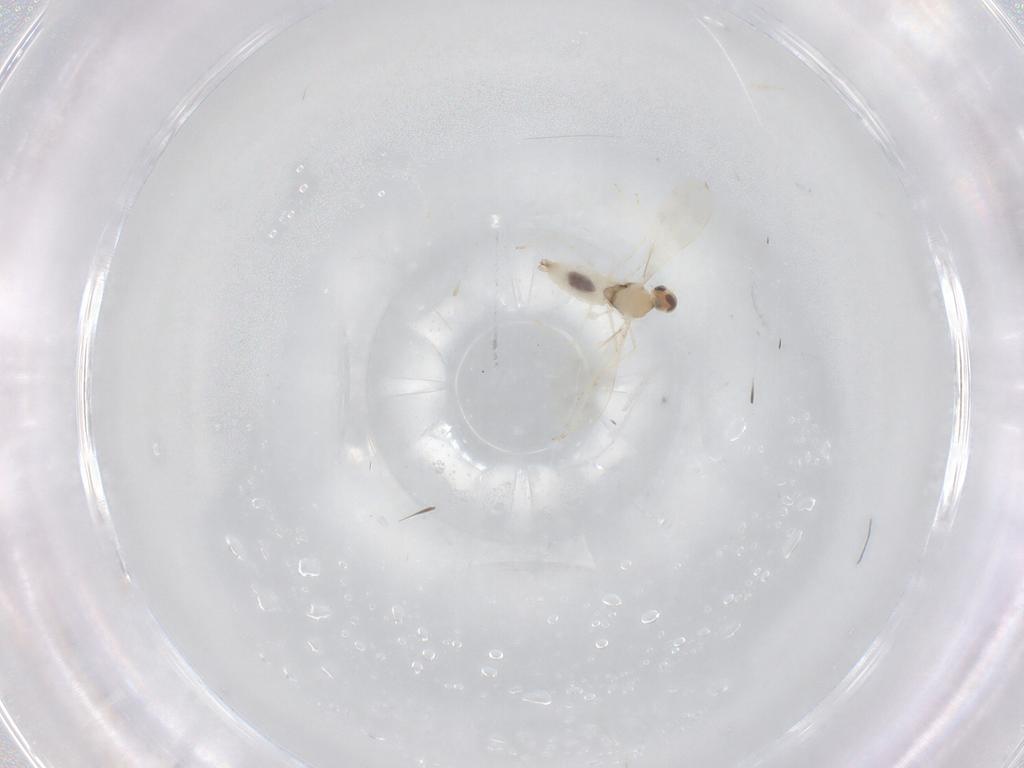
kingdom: Animalia
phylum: Arthropoda
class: Insecta
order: Diptera
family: Cecidomyiidae
